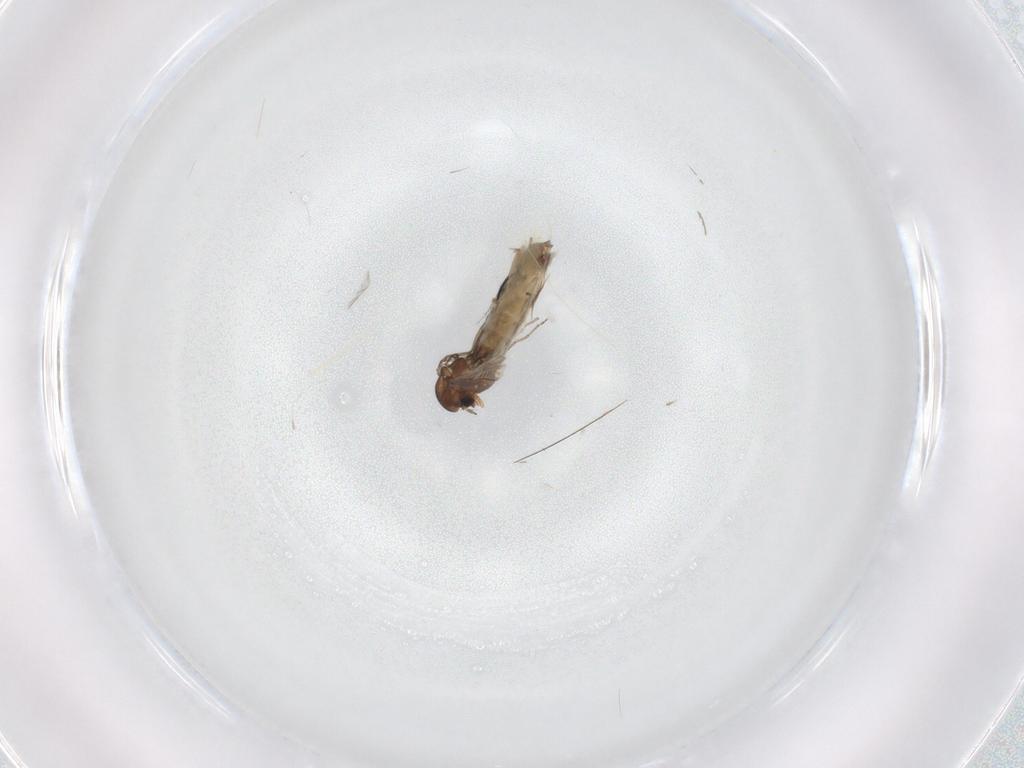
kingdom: Animalia
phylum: Arthropoda
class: Insecta
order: Diptera
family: Chironomidae
